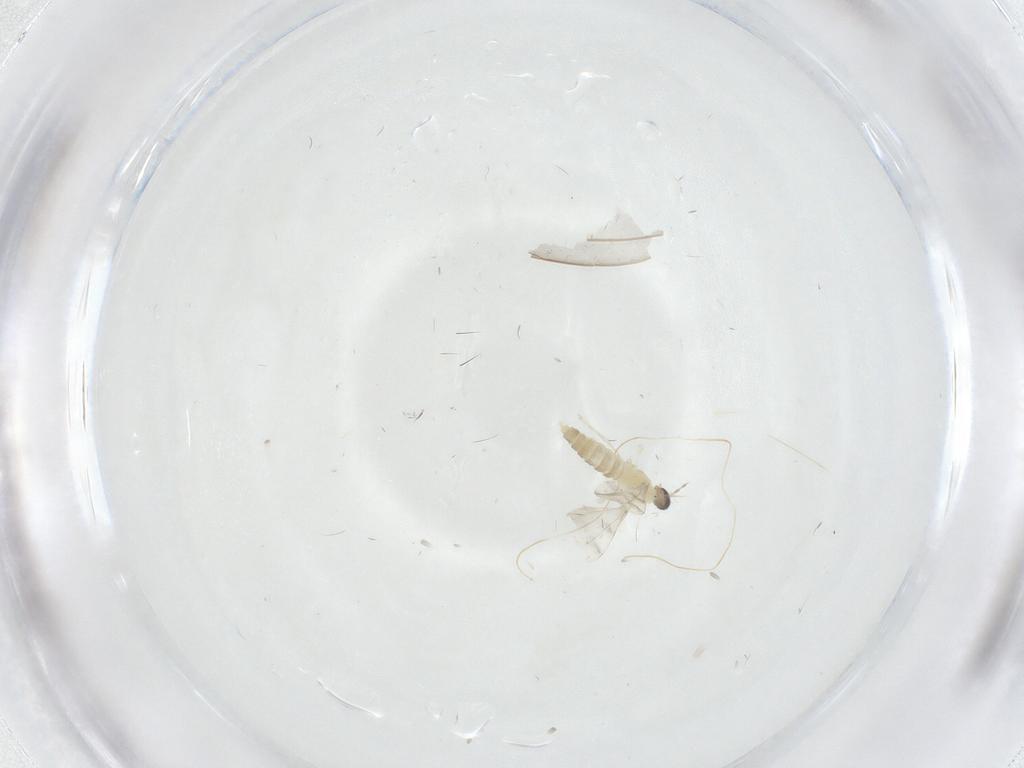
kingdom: Animalia
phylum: Arthropoda
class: Insecta
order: Diptera
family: Cecidomyiidae
